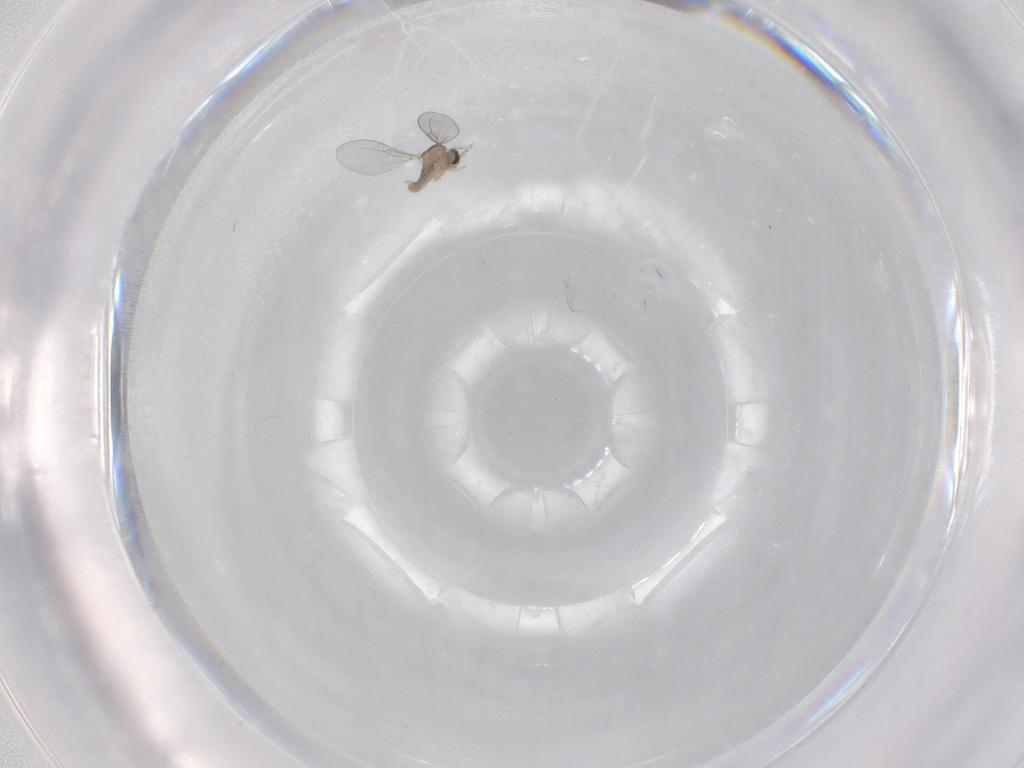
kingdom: Animalia
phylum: Arthropoda
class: Insecta
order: Diptera
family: Cecidomyiidae
